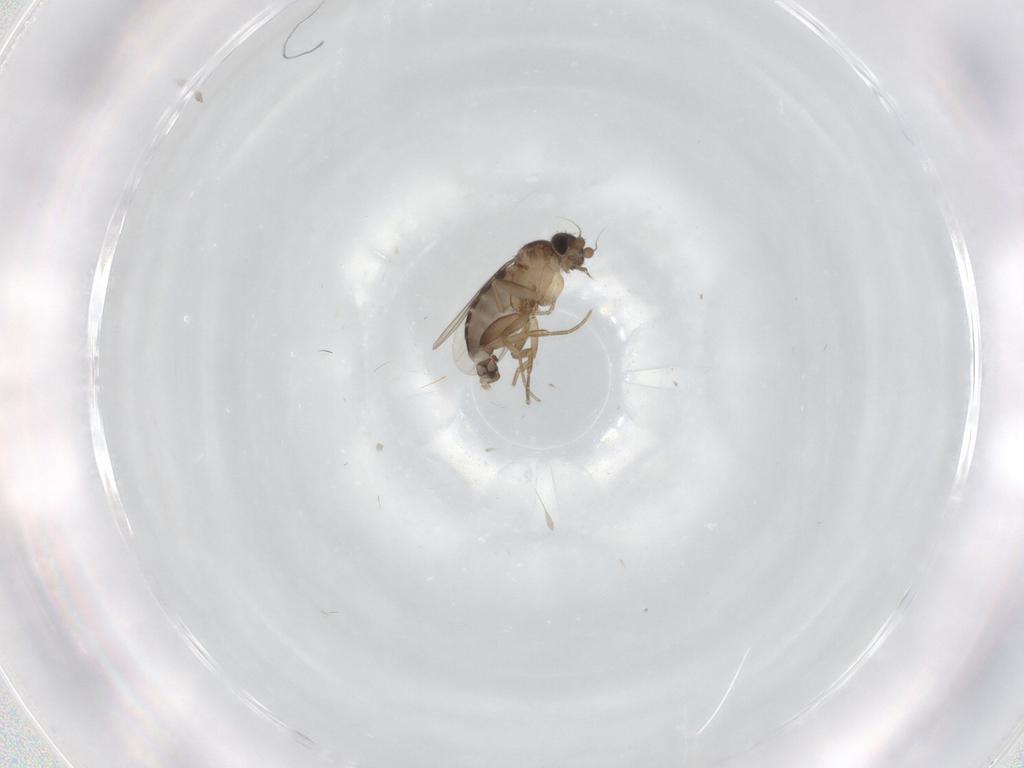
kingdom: Animalia
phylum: Arthropoda
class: Insecta
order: Diptera
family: Phoridae
